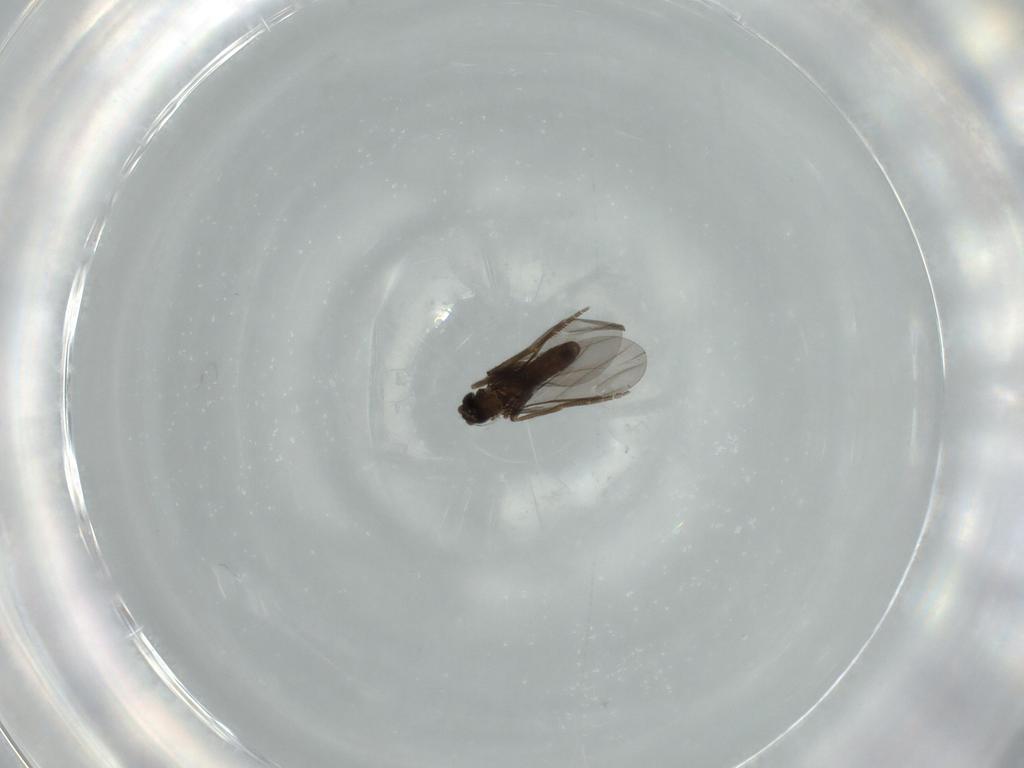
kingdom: Animalia
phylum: Arthropoda
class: Insecta
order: Diptera
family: Phoridae
